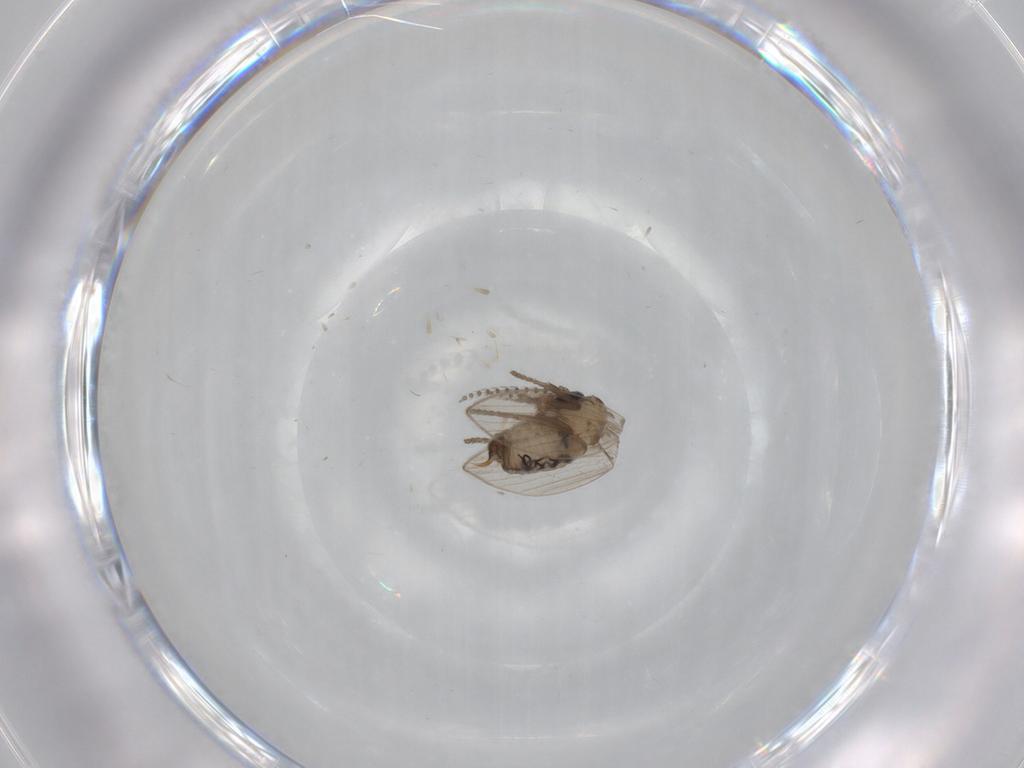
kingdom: Animalia
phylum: Arthropoda
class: Insecta
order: Diptera
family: Psychodidae
